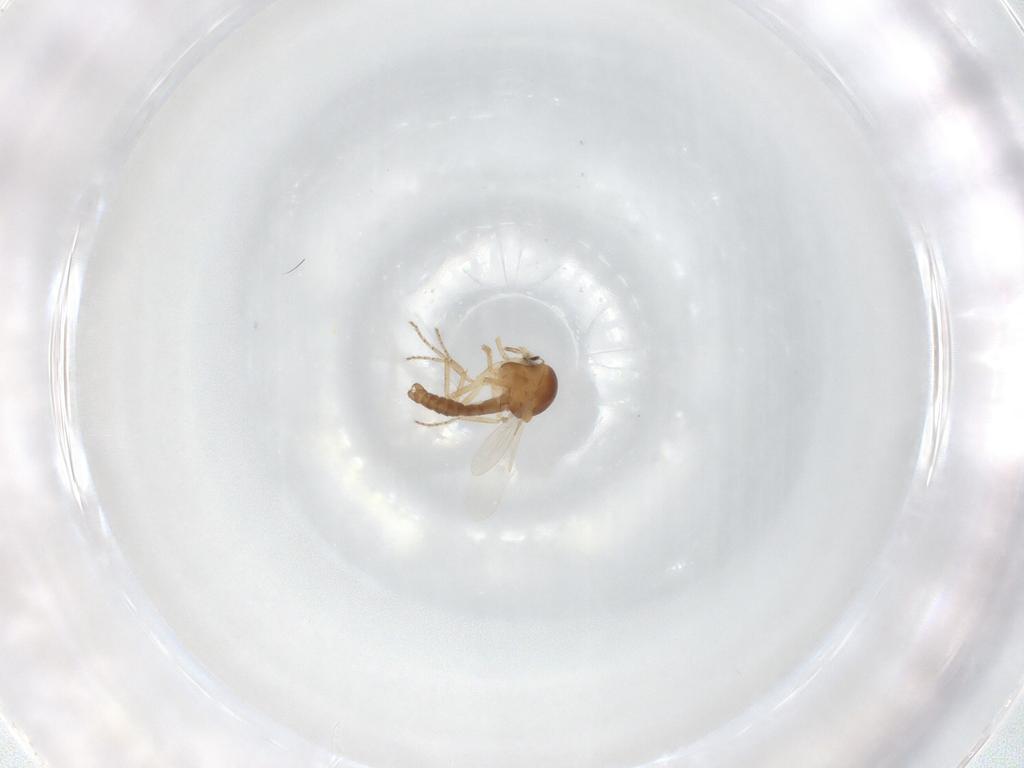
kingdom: Animalia
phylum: Arthropoda
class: Insecta
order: Diptera
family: Ceratopogonidae
